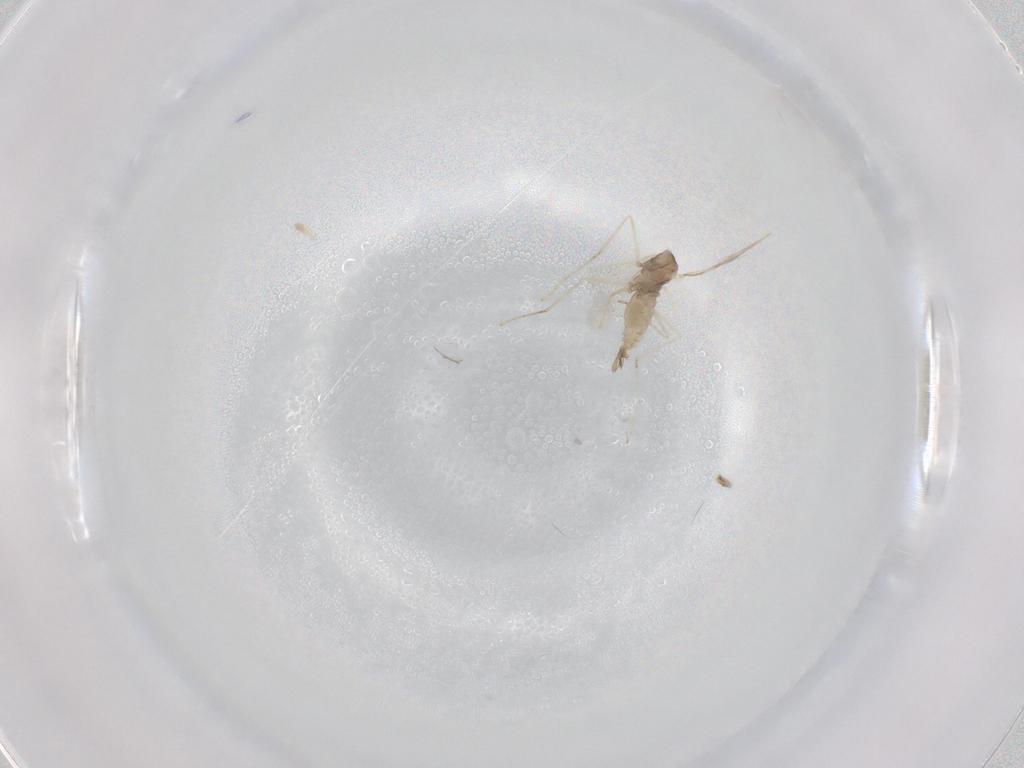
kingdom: Animalia
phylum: Arthropoda
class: Insecta
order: Diptera
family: Cecidomyiidae
